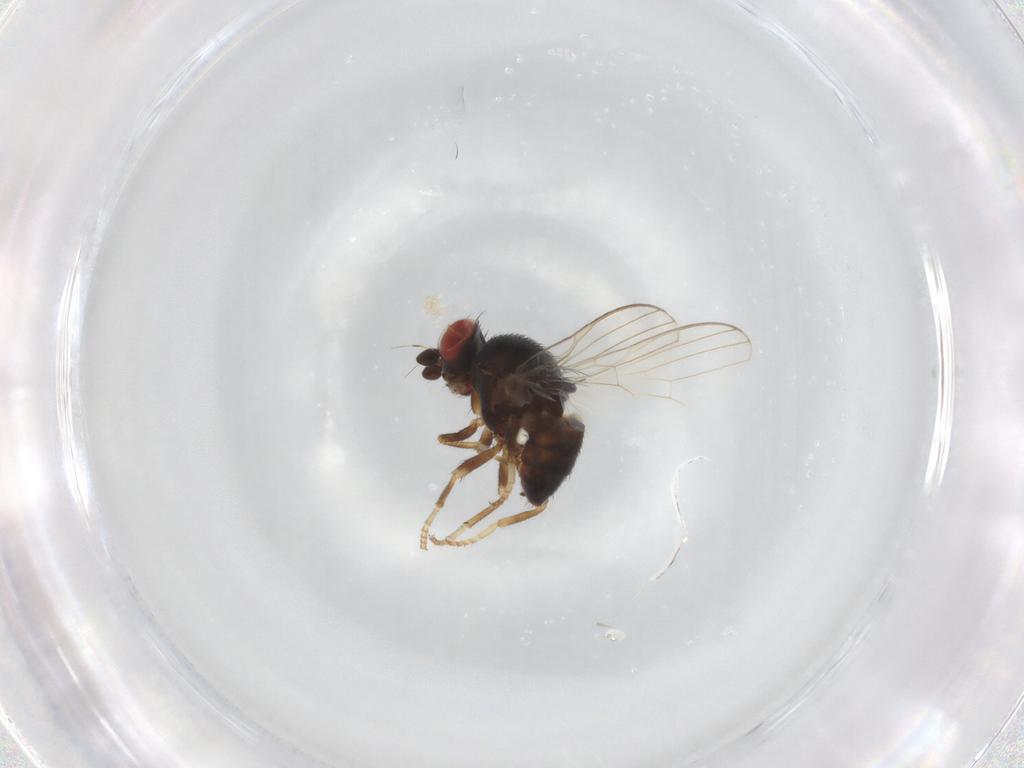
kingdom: Animalia
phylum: Arthropoda
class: Insecta
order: Diptera
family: Chamaemyiidae
